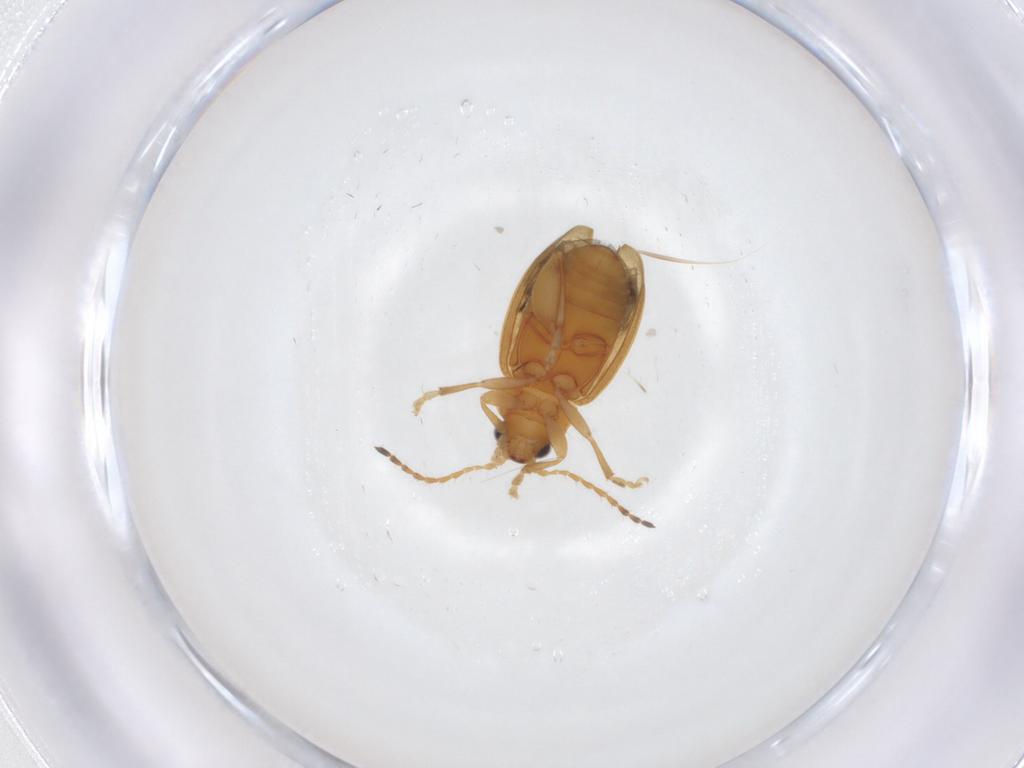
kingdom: Animalia
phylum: Arthropoda
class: Insecta
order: Coleoptera
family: Chrysomelidae
